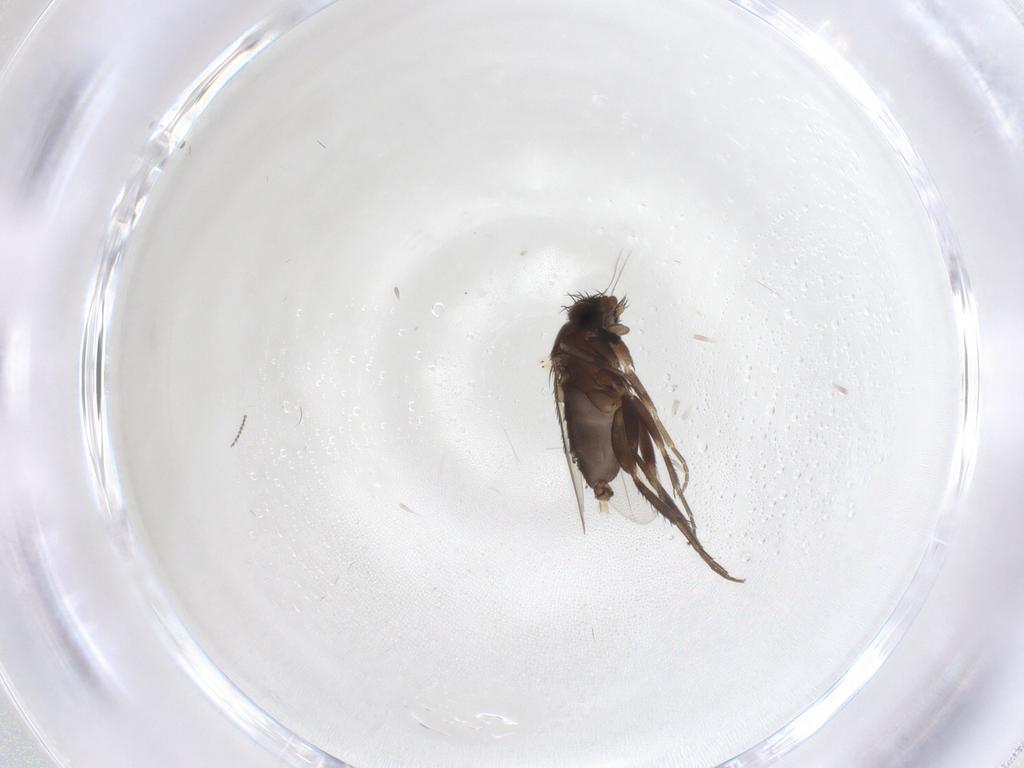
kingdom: Animalia
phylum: Arthropoda
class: Insecta
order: Diptera
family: Phoridae
